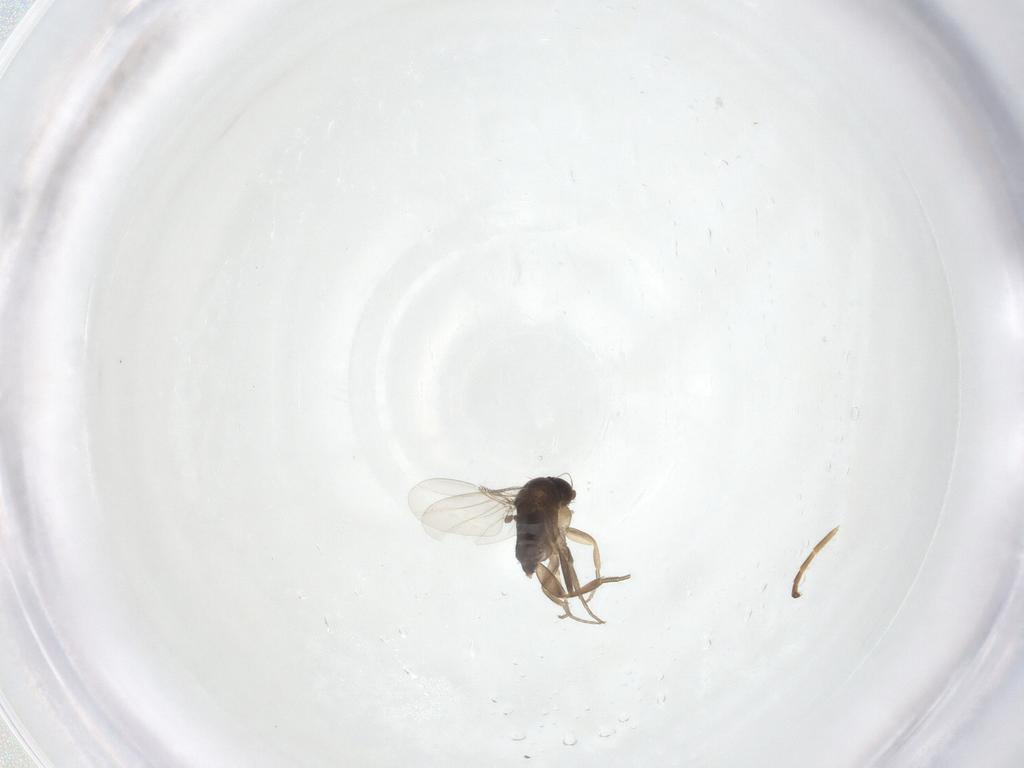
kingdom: Animalia
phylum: Arthropoda
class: Insecta
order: Diptera
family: Phoridae
